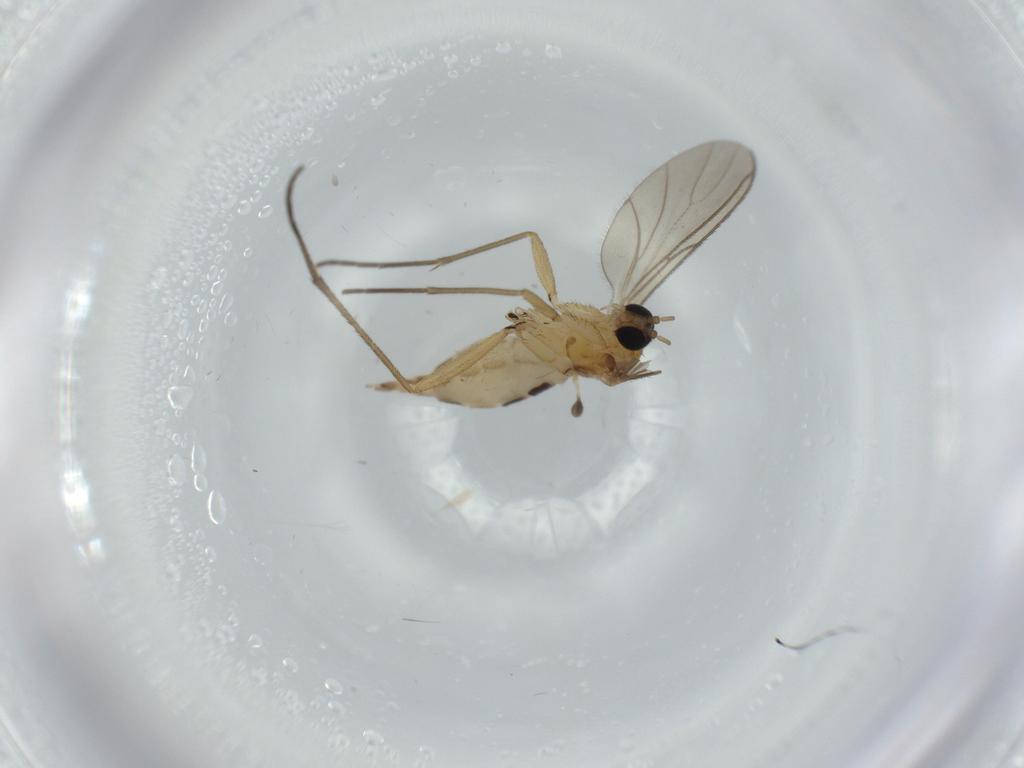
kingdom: Animalia
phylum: Arthropoda
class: Insecta
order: Diptera
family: Sciaridae
